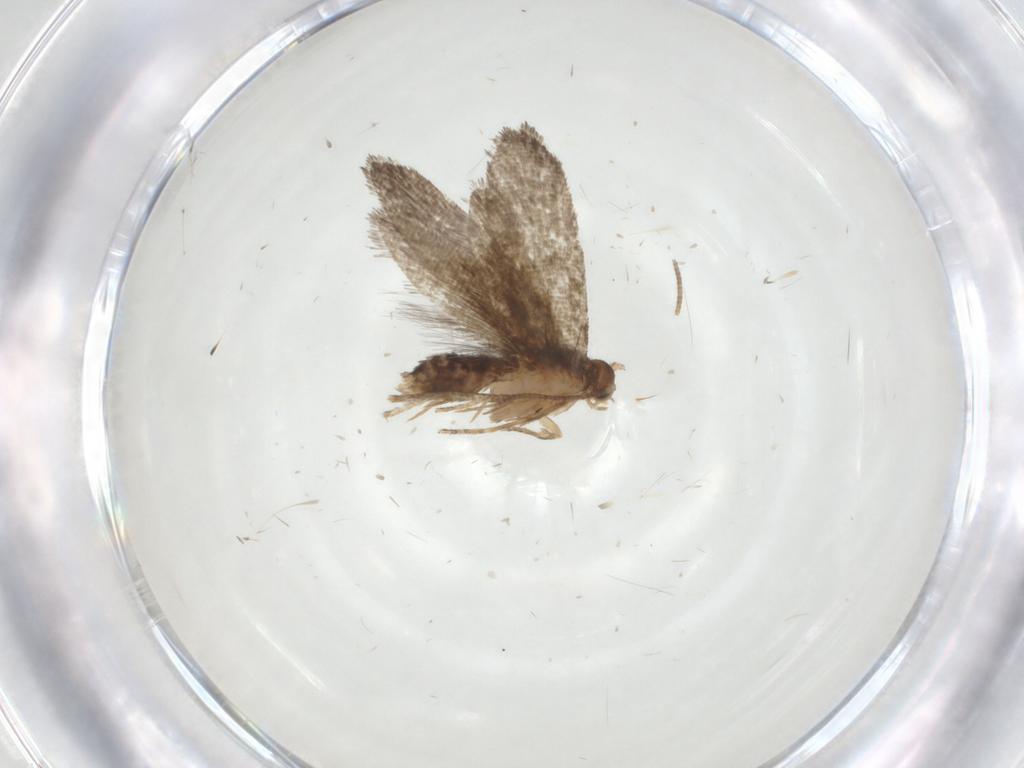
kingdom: Animalia
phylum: Arthropoda
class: Insecta
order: Lepidoptera
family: Tineidae
